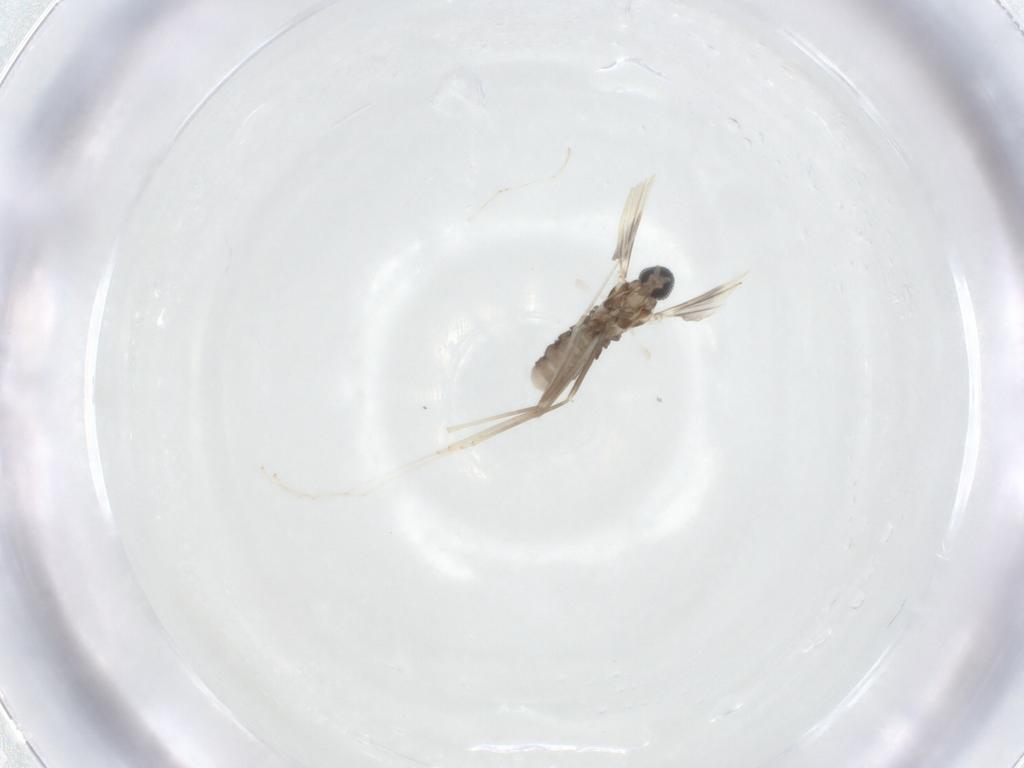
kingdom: Animalia
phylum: Arthropoda
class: Insecta
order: Diptera
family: Cecidomyiidae
